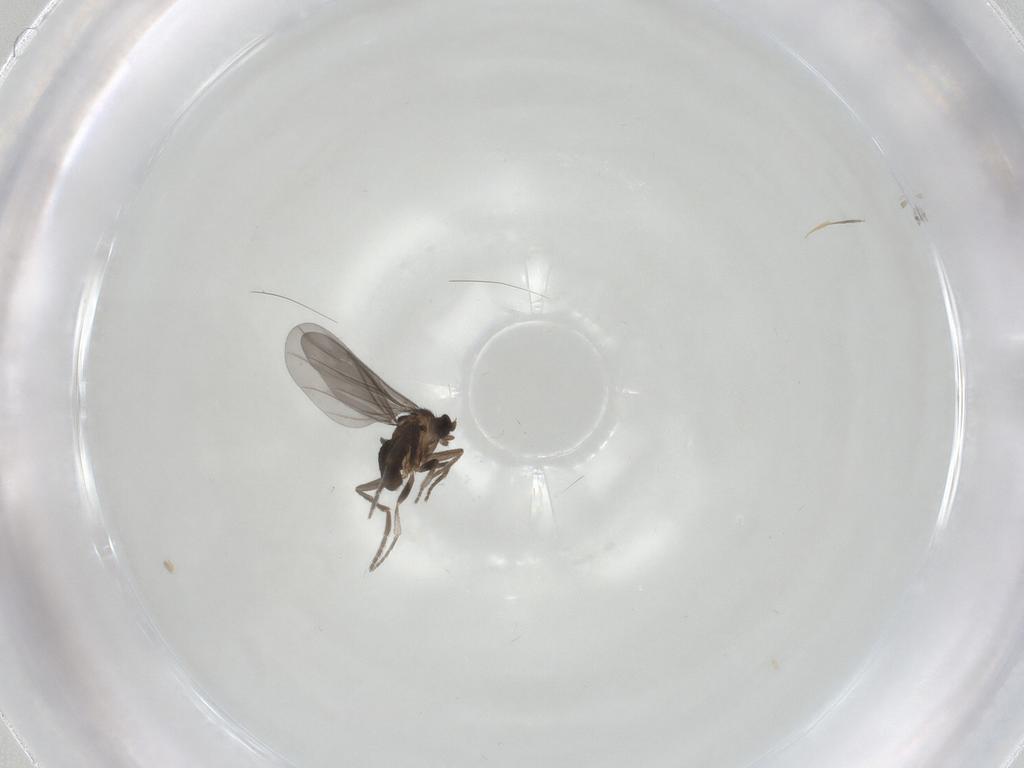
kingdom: Animalia
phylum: Arthropoda
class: Insecta
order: Diptera
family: Phoridae
